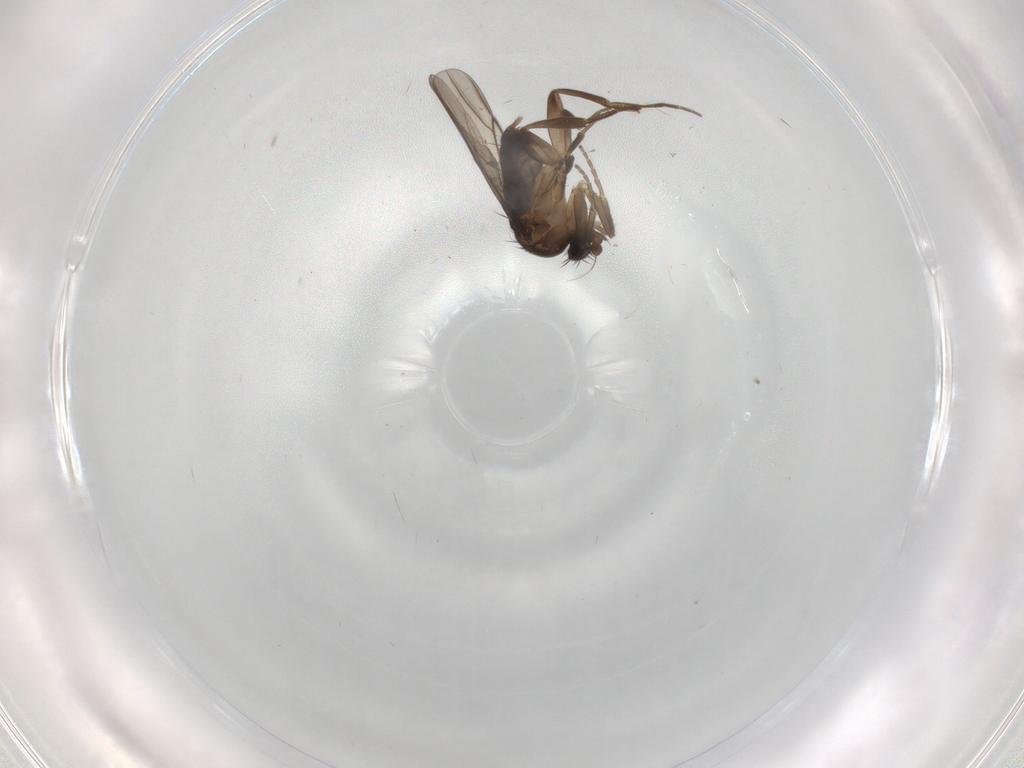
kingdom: Animalia
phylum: Arthropoda
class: Insecta
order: Diptera
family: Phoridae
